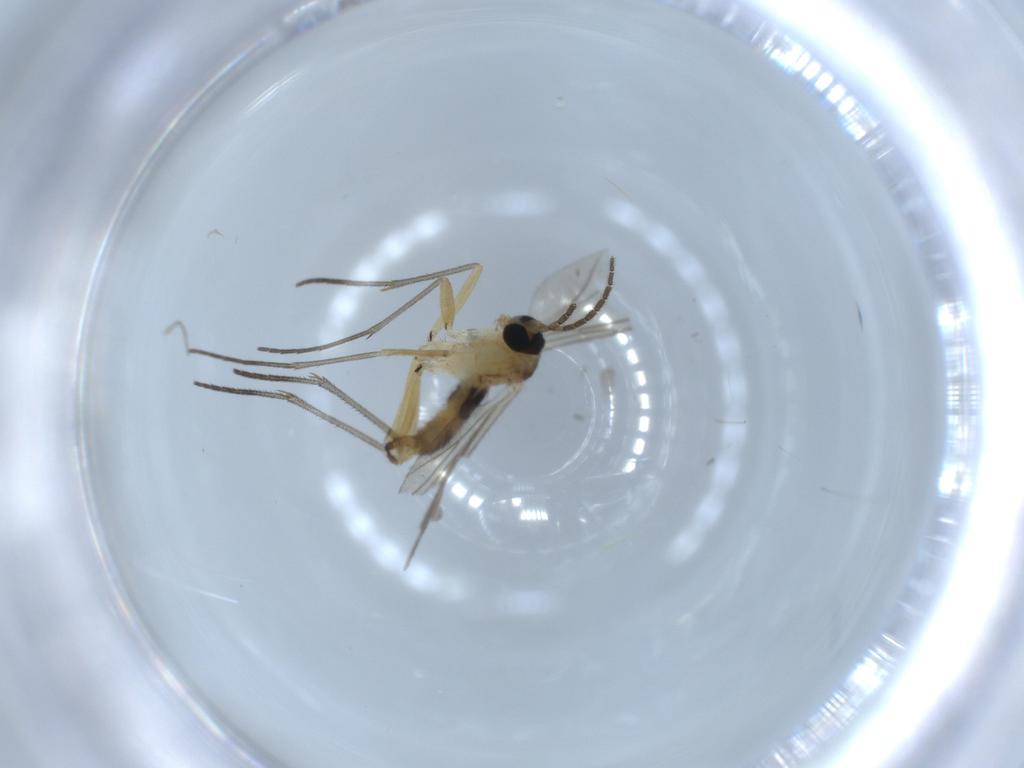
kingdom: Animalia
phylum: Arthropoda
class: Insecta
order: Diptera
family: Sciaridae
